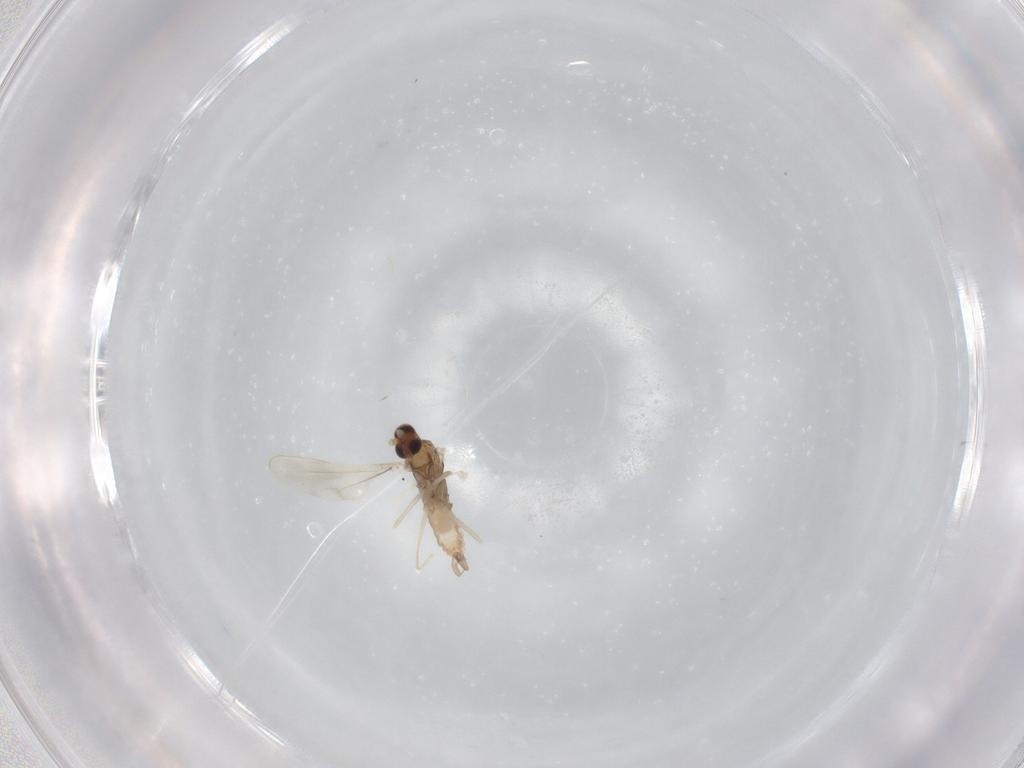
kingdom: Animalia
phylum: Arthropoda
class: Insecta
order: Diptera
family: Cecidomyiidae
